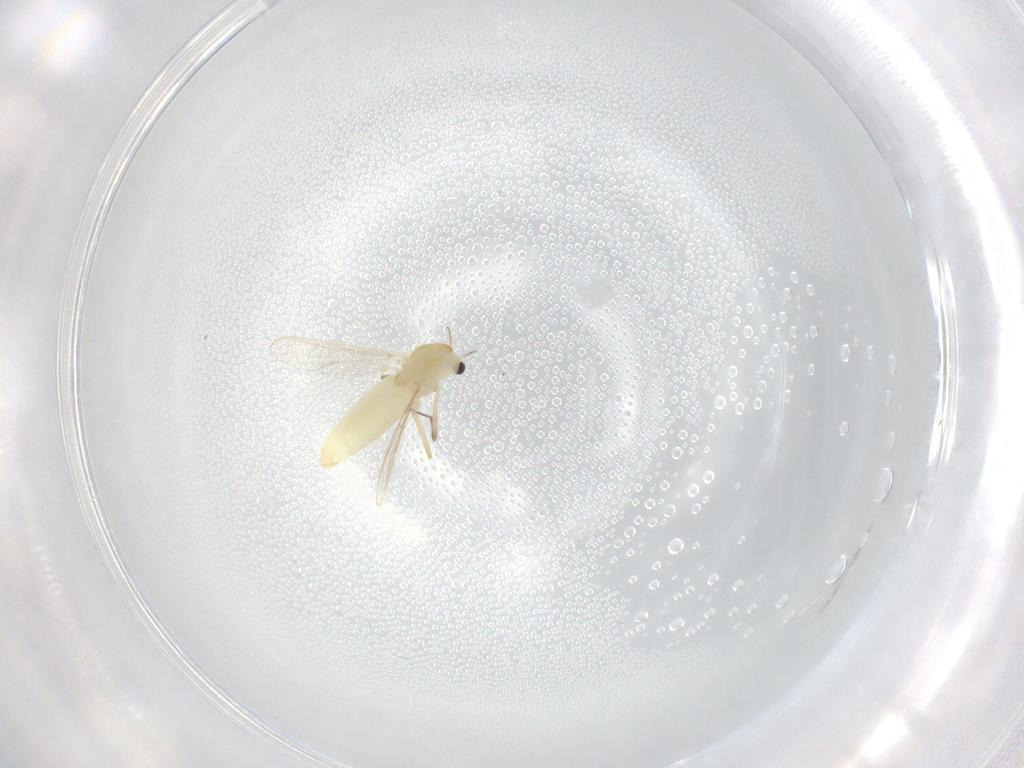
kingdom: Animalia
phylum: Arthropoda
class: Insecta
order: Diptera
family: Chironomidae
